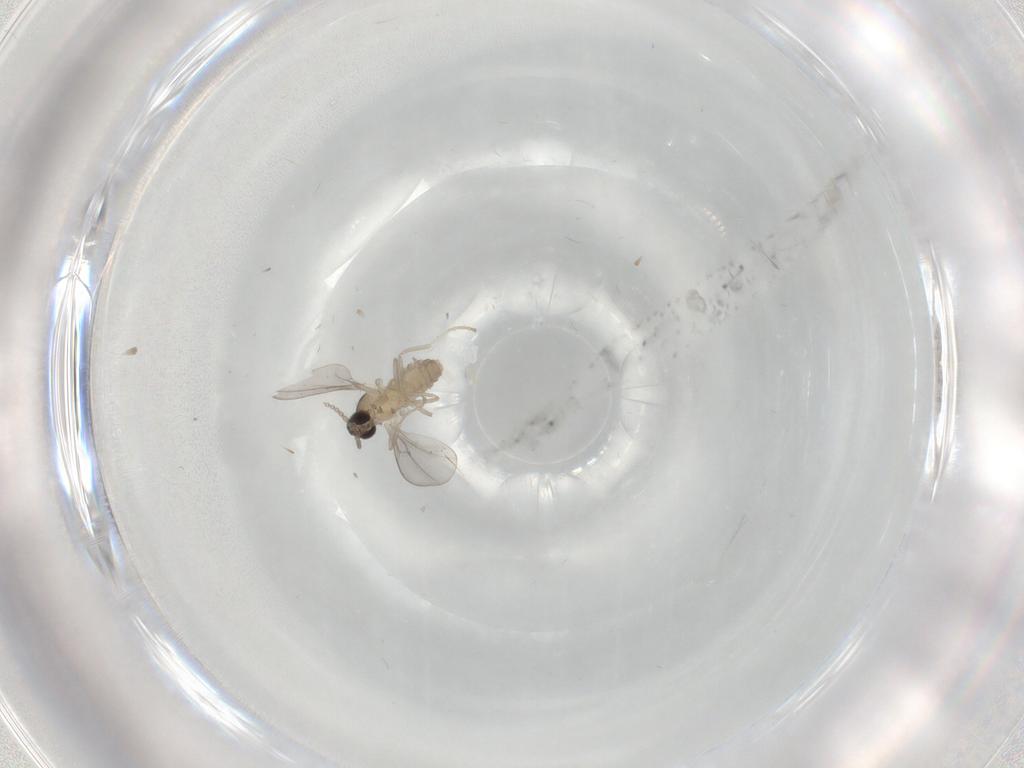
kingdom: Animalia
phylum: Arthropoda
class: Insecta
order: Diptera
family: Cecidomyiidae
